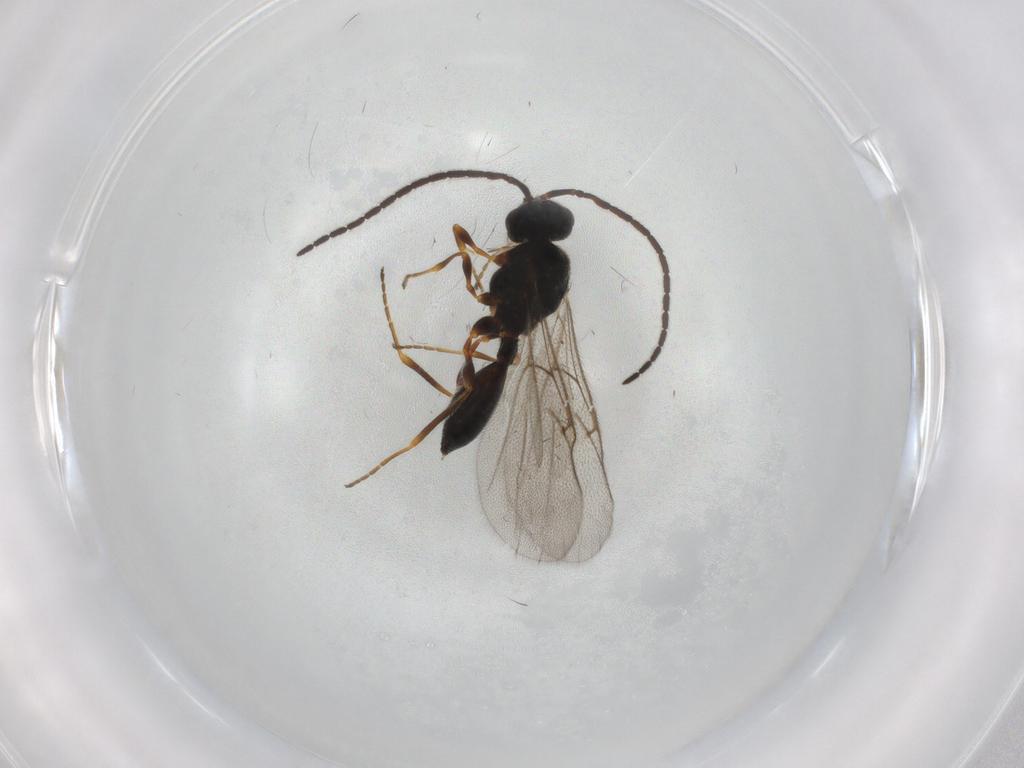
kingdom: Animalia
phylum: Arthropoda
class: Insecta
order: Hymenoptera
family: Diapriidae
